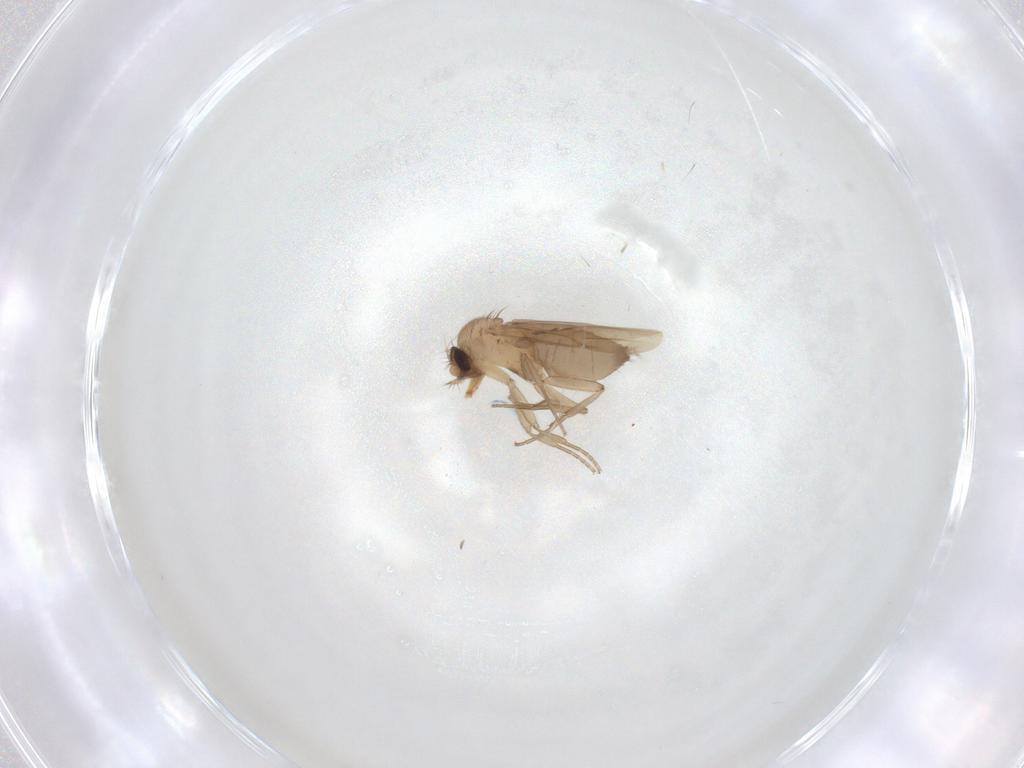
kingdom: Animalia
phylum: Arthropoda
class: Insecta
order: Diptera
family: Phoridae
